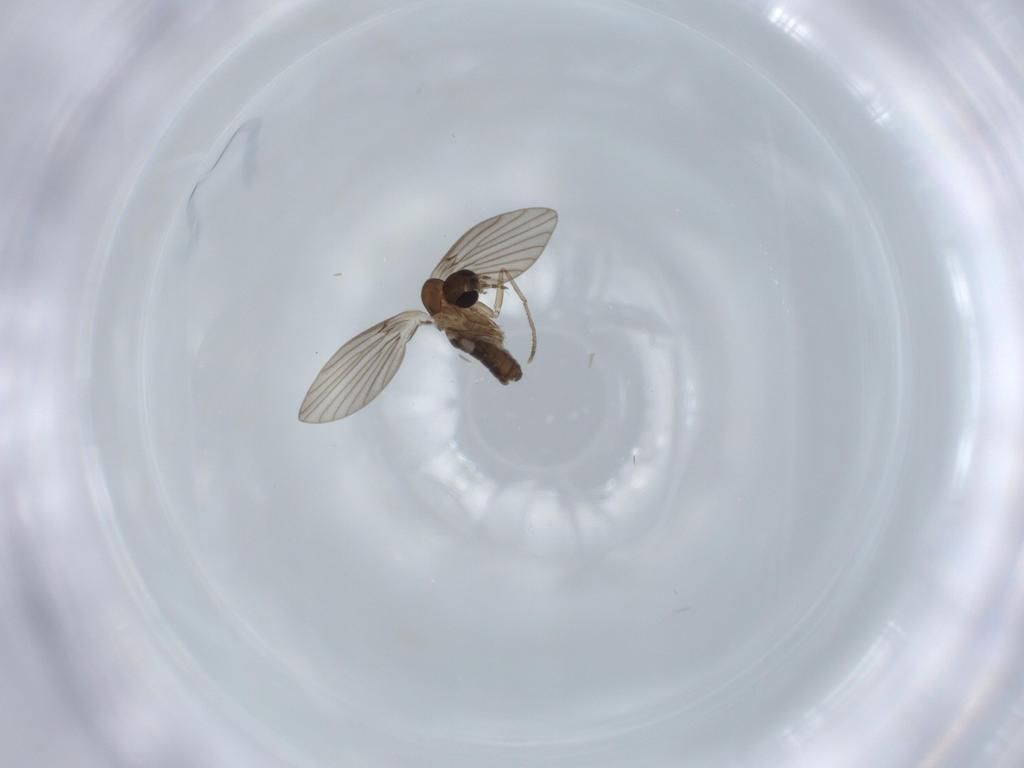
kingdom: Animalia
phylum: Arthropoda
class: Insecta
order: Diptera
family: Psychodidae
